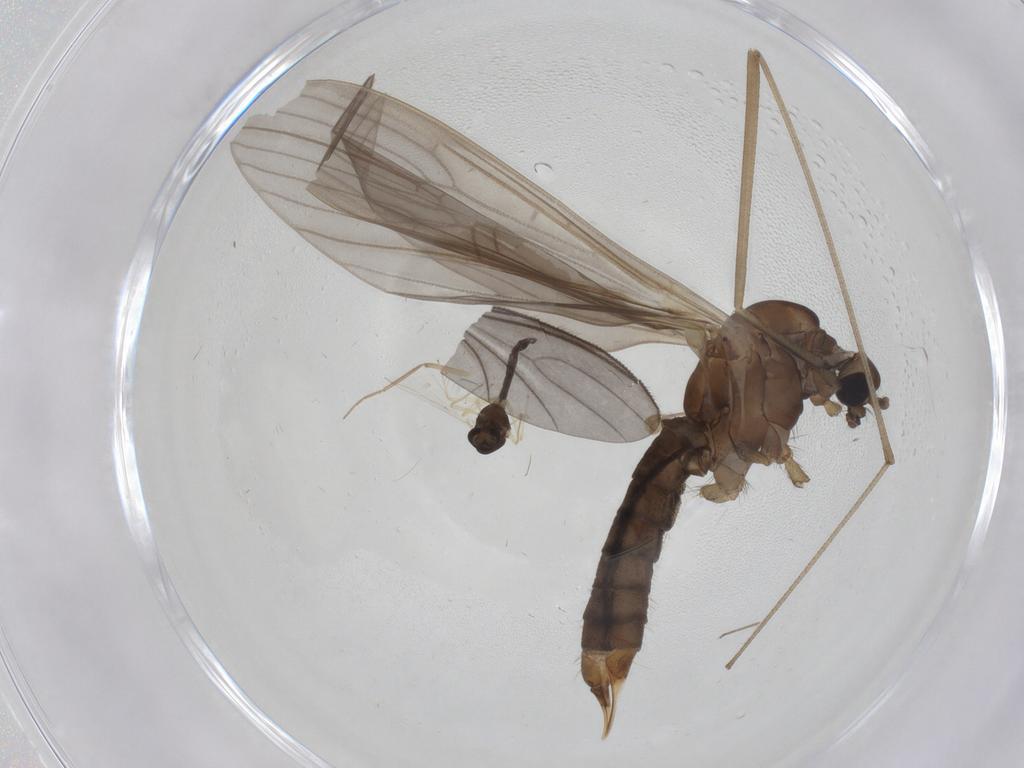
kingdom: Animalia
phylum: Arthropoda
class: Insecta
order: Diptera
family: Limoniidae
